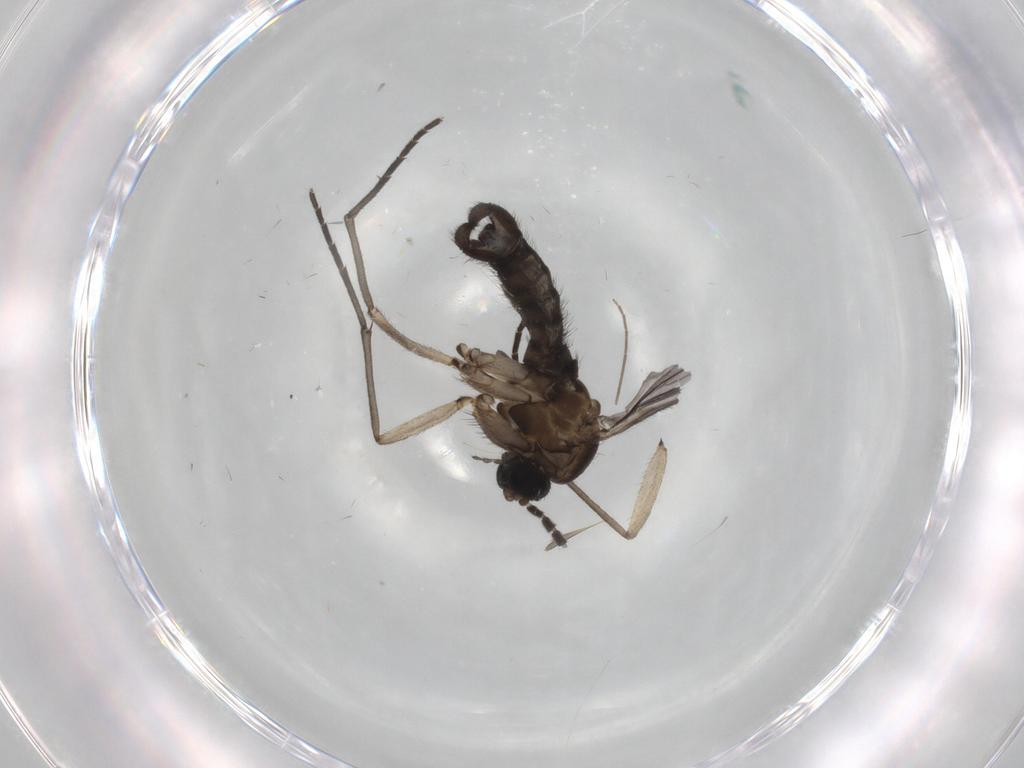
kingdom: Animalia
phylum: Arthropoda
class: Insecta
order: Diptera
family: Sciaridae
